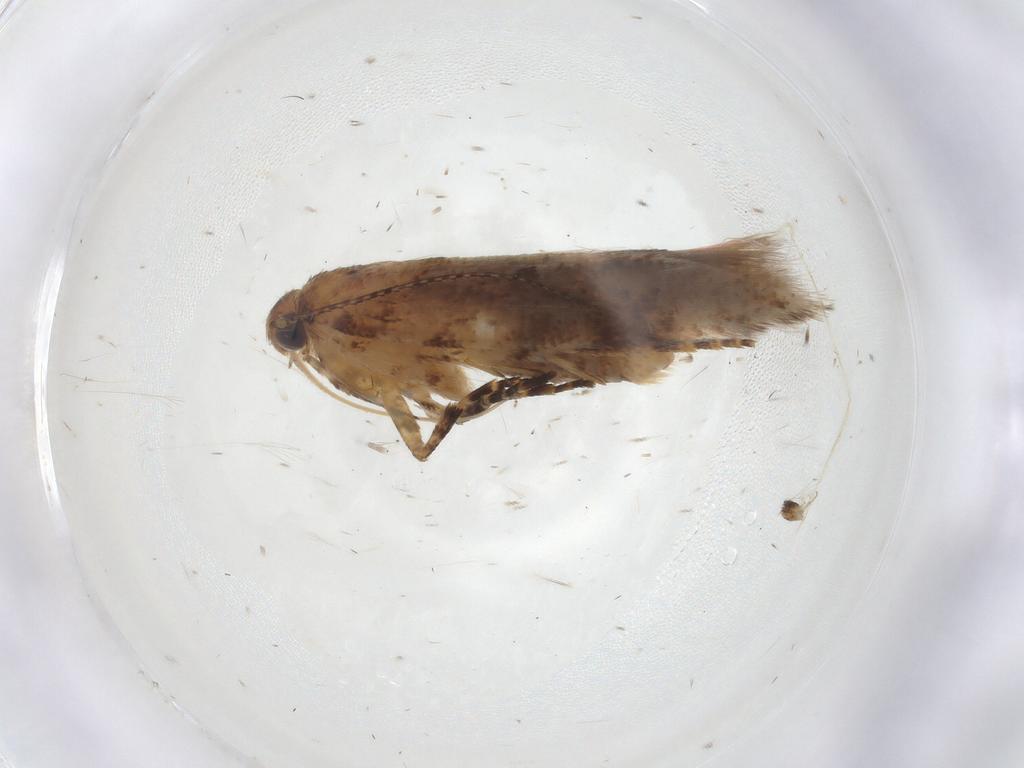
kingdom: Animalia
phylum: Arthropoda
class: Insecta
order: Lepidoptera
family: Gelechiidae
